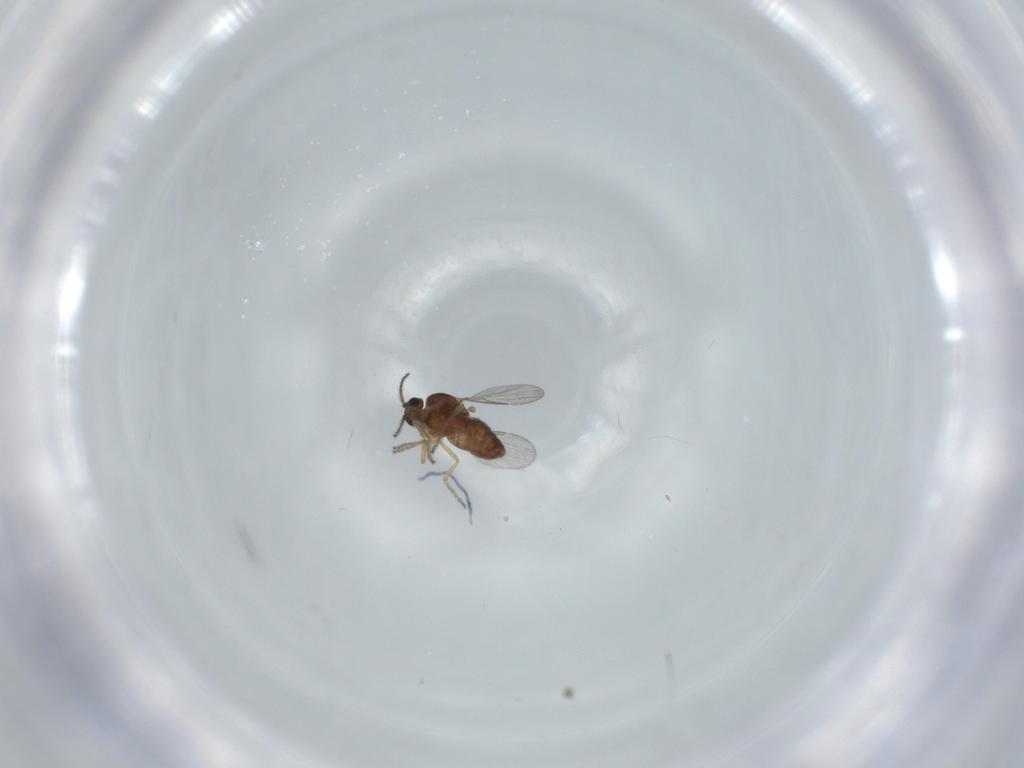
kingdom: Animalia
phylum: Arthropoda
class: Insecta
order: Diptera
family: Ceratopogonidae
